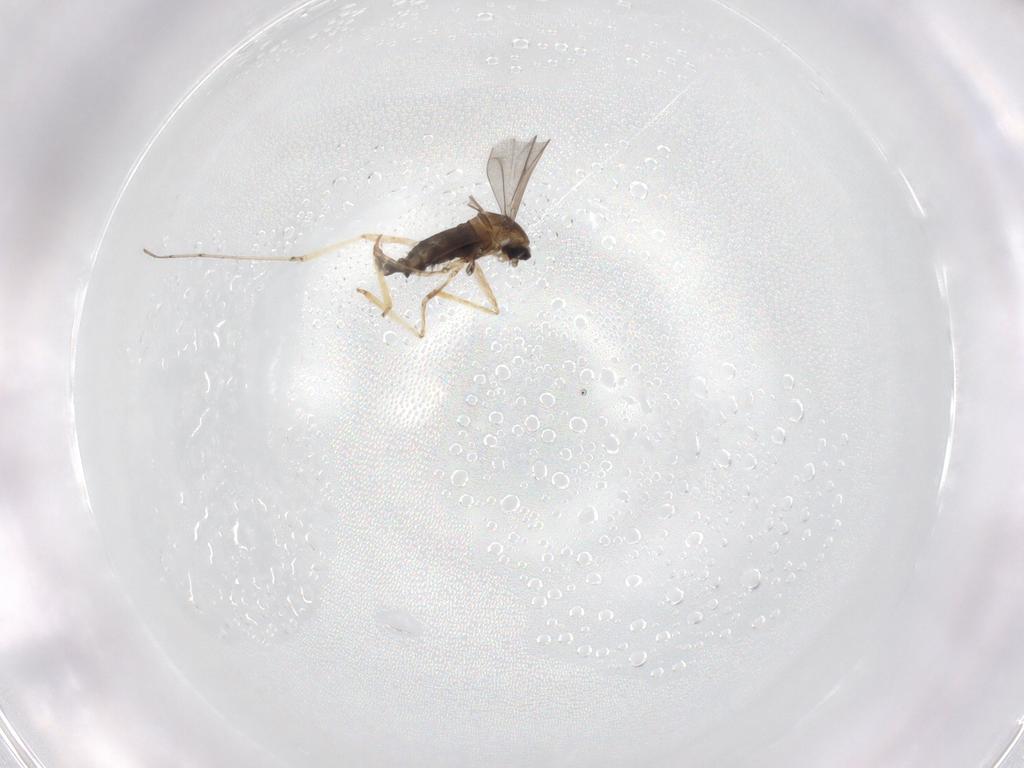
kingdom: Animalia
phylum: Arthropoda
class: Insecta
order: Diptera
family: Cecidomyiidae
